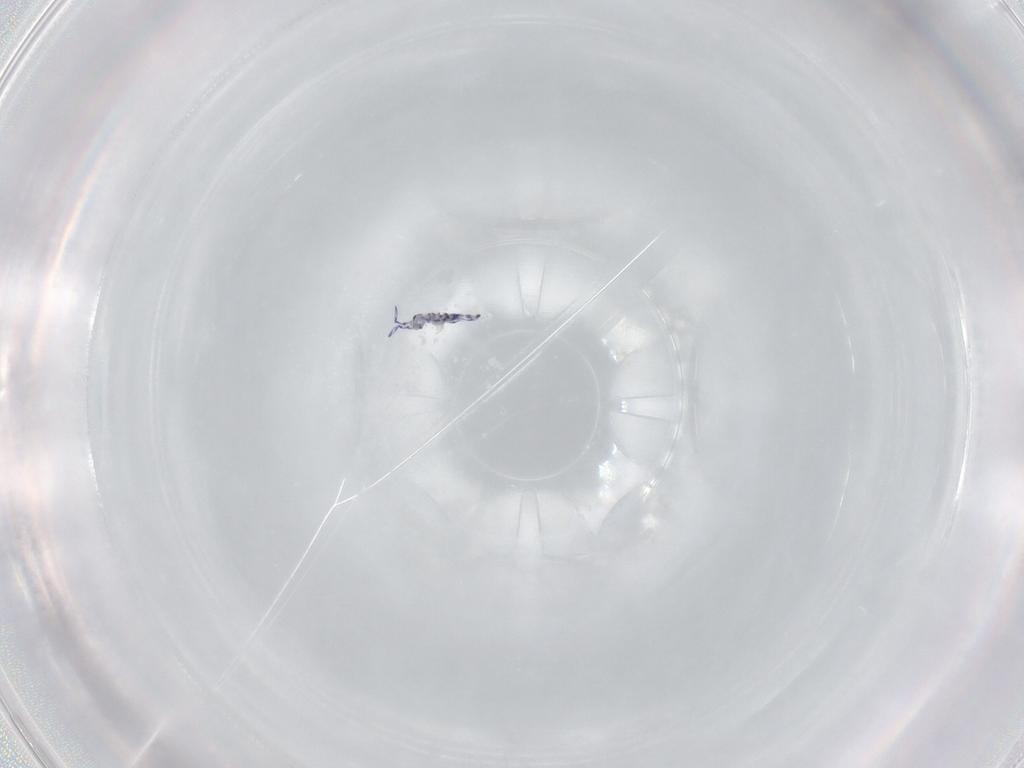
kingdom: Animalia
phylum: Arthropoda
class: Collembola
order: Entomobryomorpha
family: Entomobryidae
